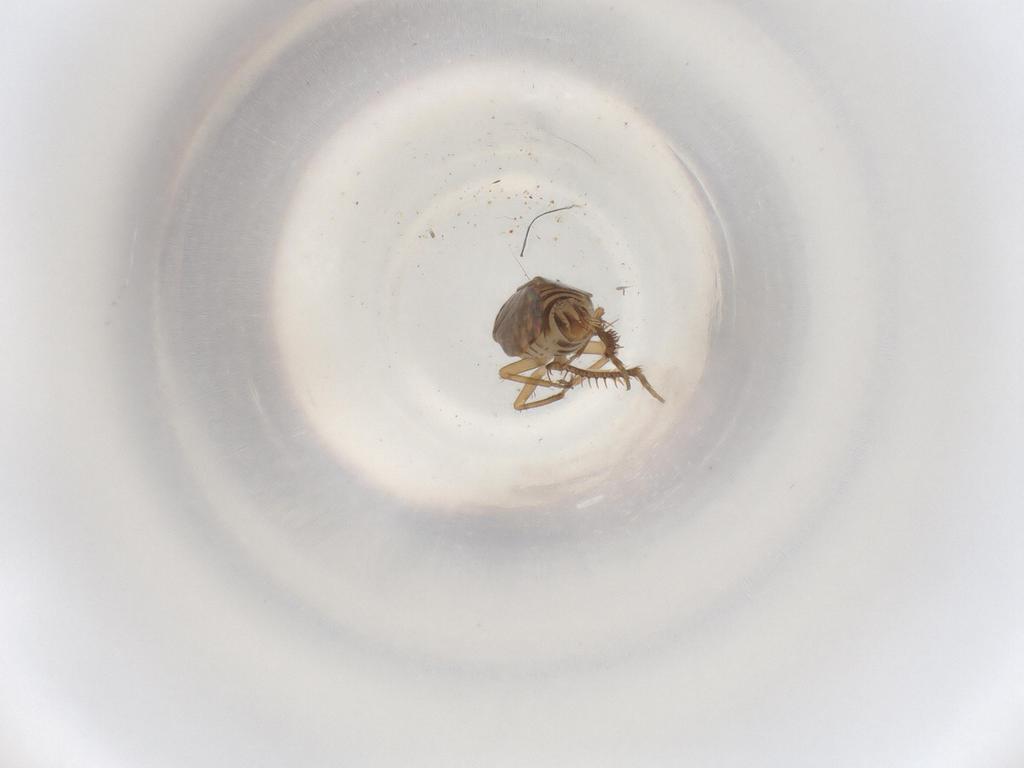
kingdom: Animalia
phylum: Arthropoda
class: Insecta
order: Hemiptera
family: Cicadellidae
